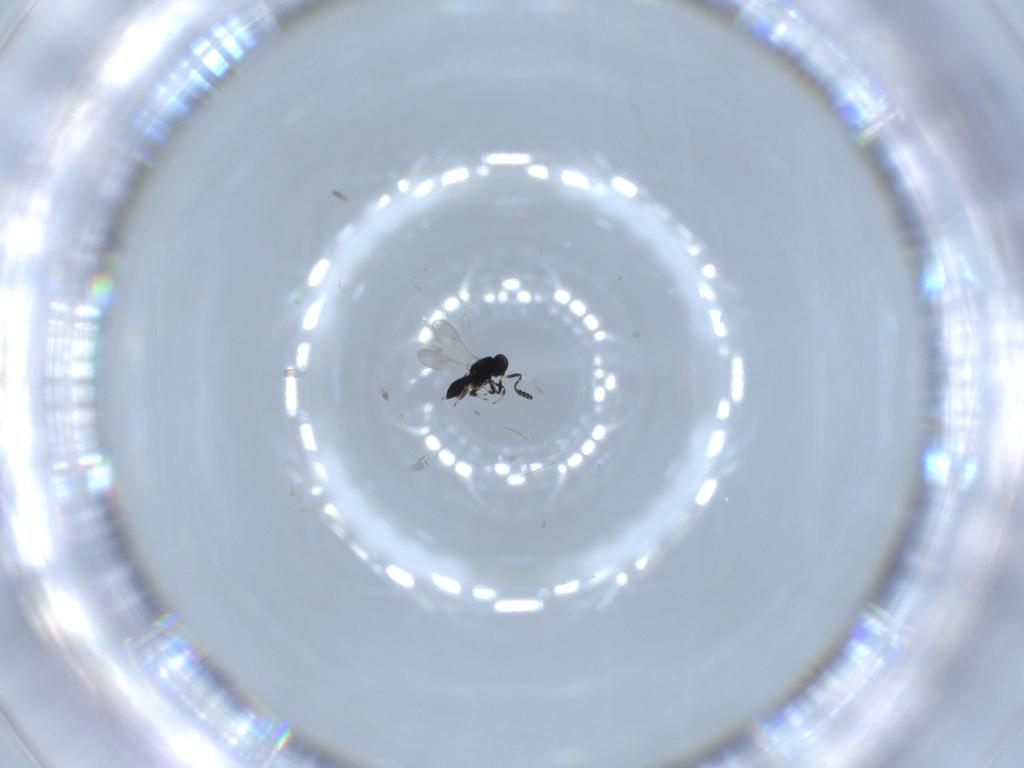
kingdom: Animalia
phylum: Arthropoda
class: Insecta
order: Hymenoptera
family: Scelionidae
